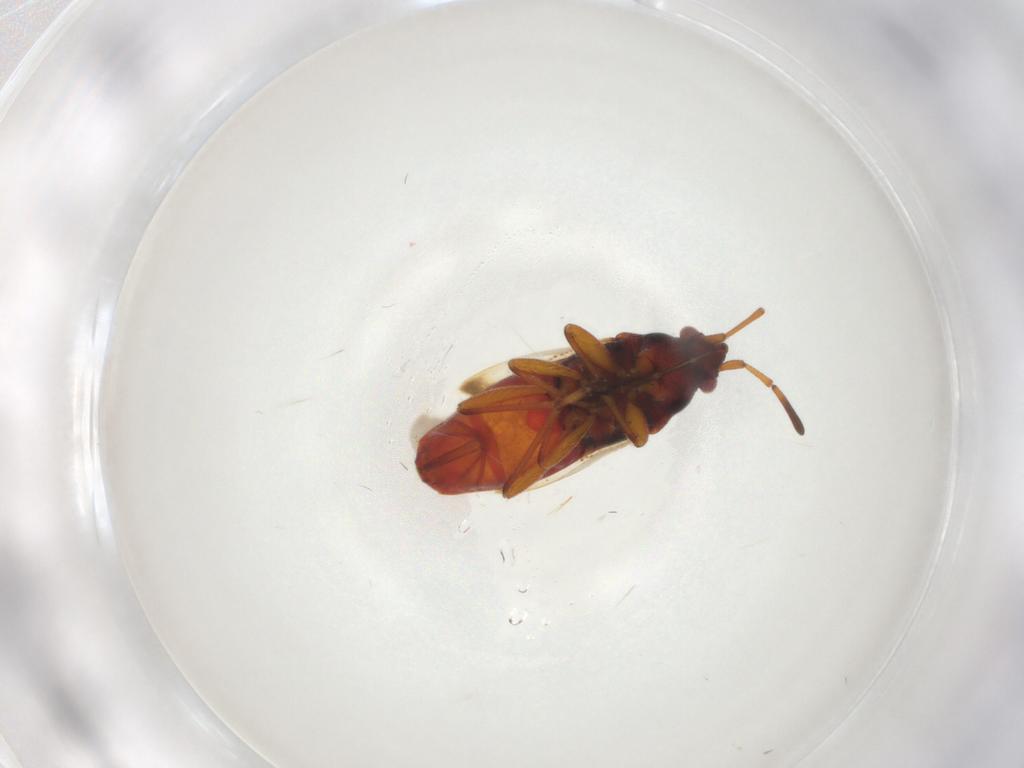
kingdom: Animalia
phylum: Arthropoda
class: Insecta
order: Hemiptera
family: Rhyparochromidae
